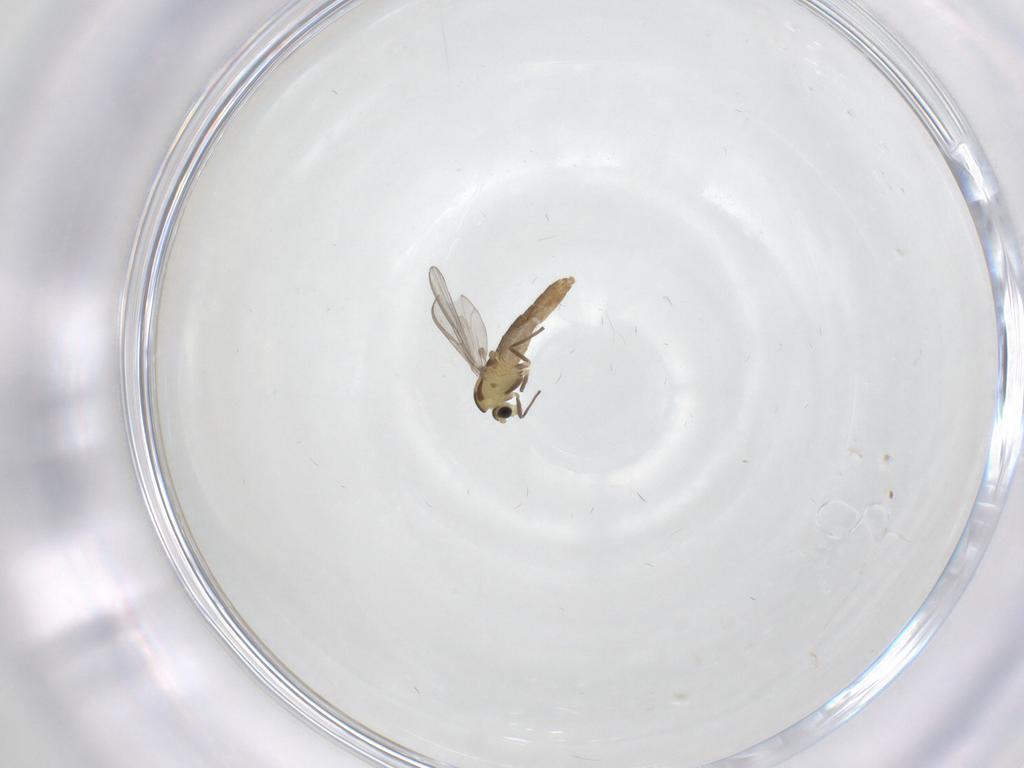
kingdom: Animalia
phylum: Arthropoda
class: Insecta
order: Diptera
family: Chironomidae
